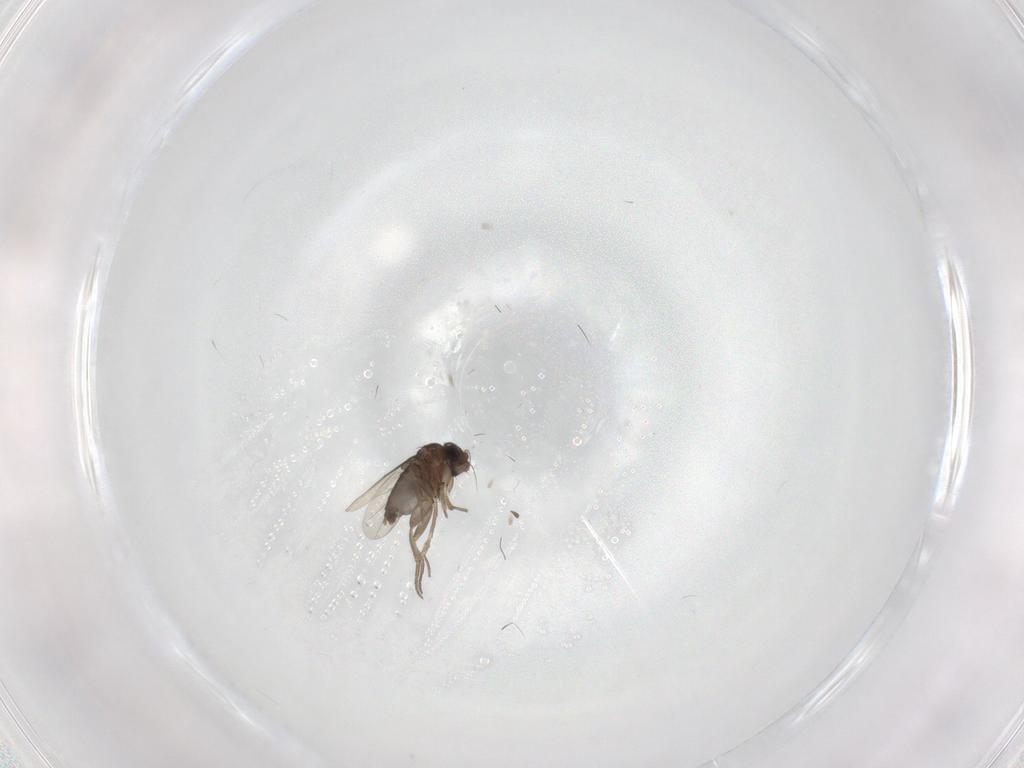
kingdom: Animalia
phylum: Arthropoda
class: Insecta
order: Diptera
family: Phoridae
